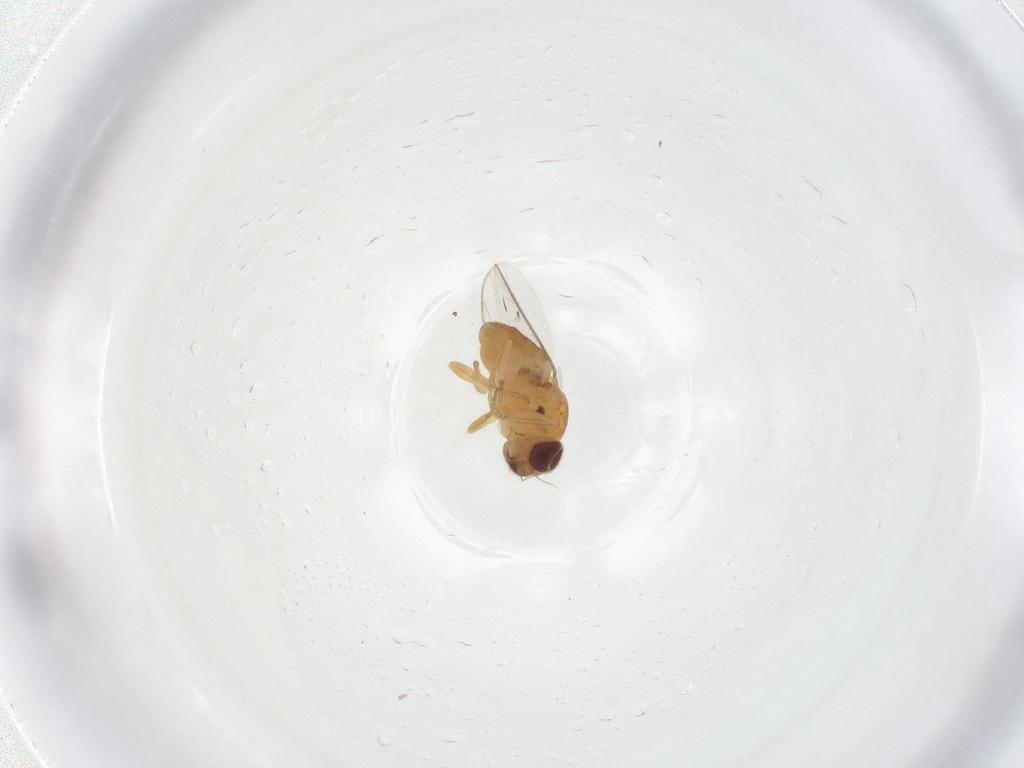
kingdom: Animalia
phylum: Arthropoda
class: Insecta
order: Diptera
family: Chloropidae
